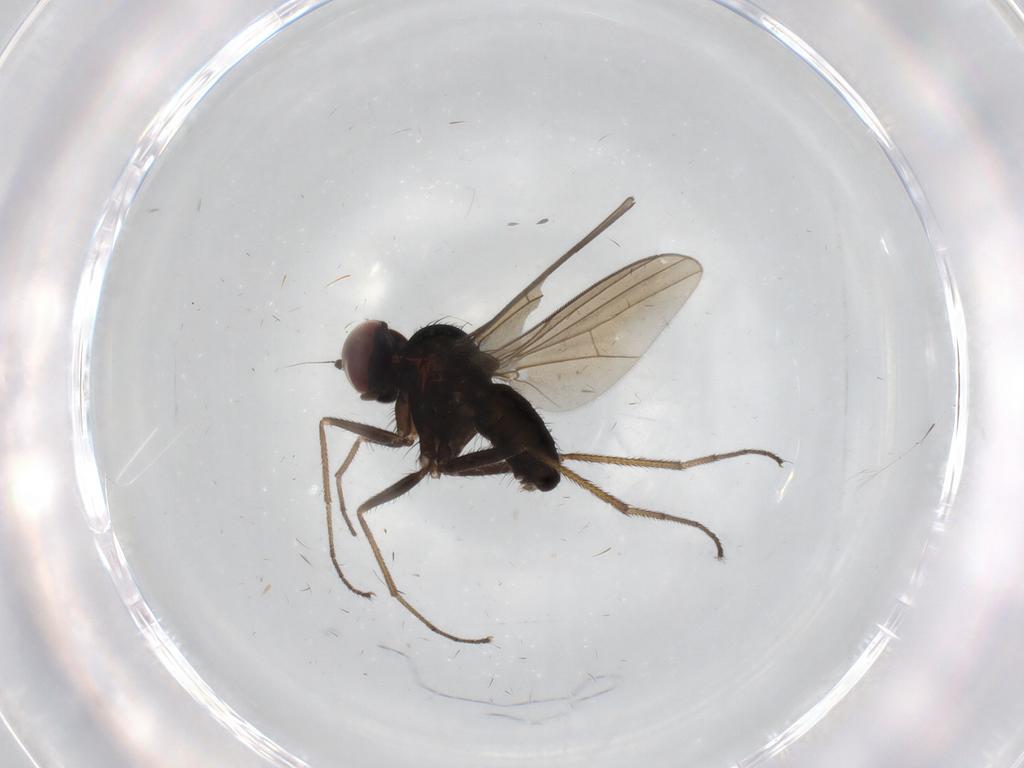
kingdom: Animalia
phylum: Arthropoda
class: Insecta
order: Diptera
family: Dolichopodidae
